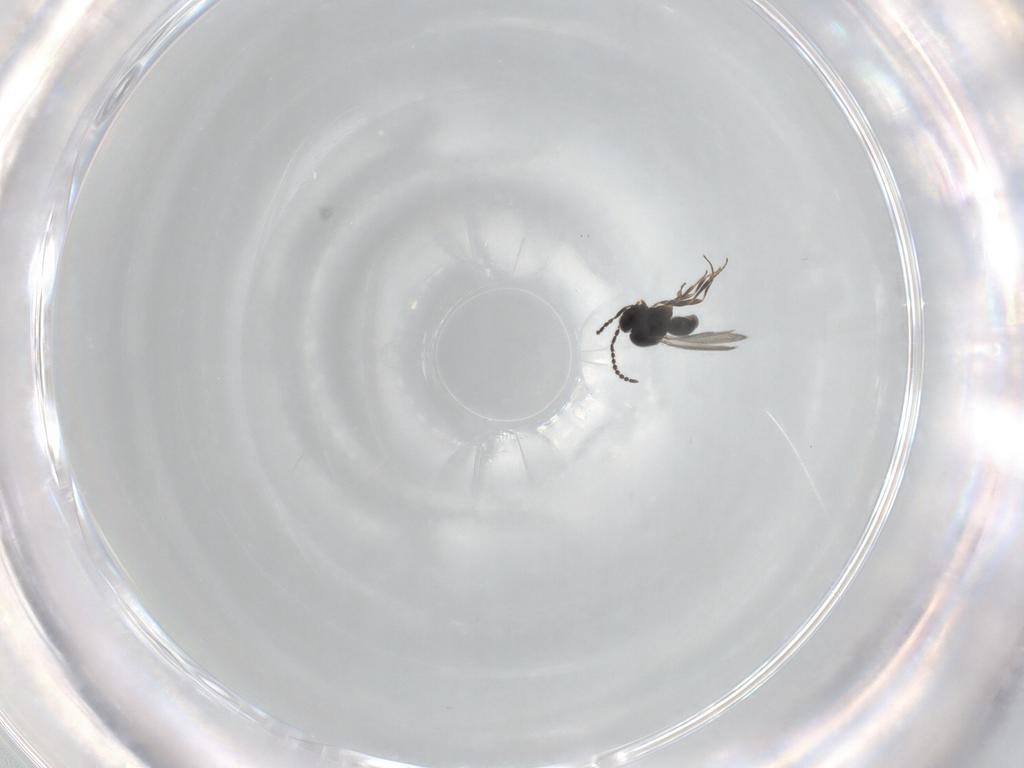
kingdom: Animalia
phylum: Arthropoda
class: Insecta
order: Hymenoptera
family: Scelionidae
